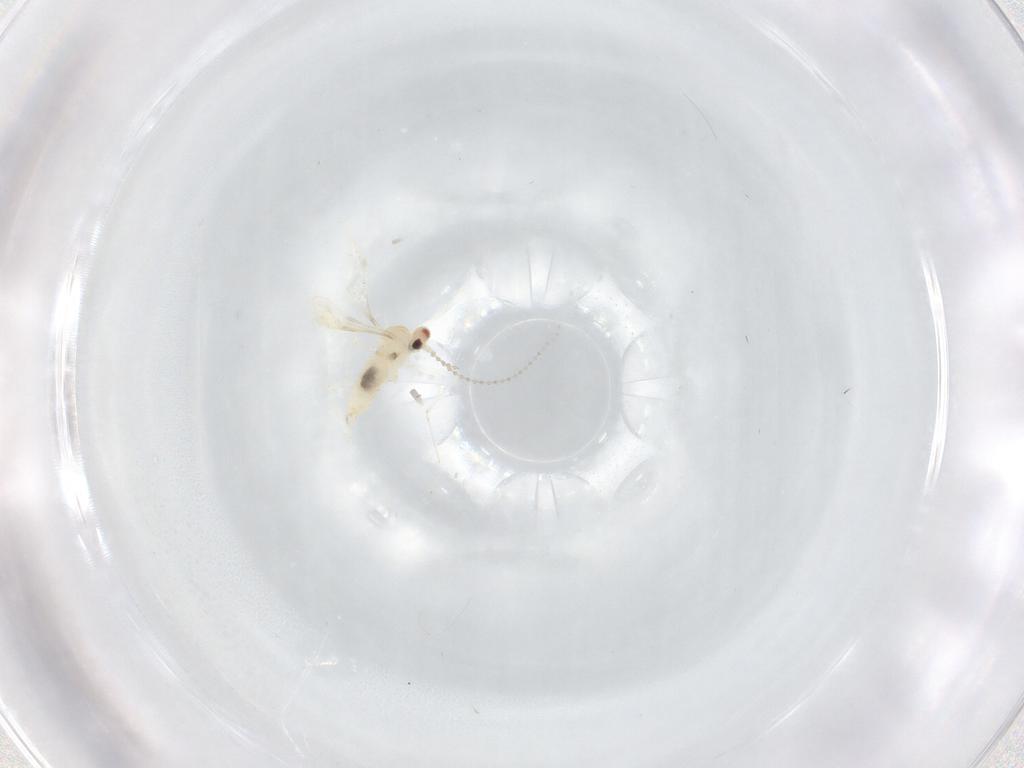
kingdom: Animalia
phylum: Arthropoda
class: Insecta
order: Diptera
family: Cecidomyiidae
